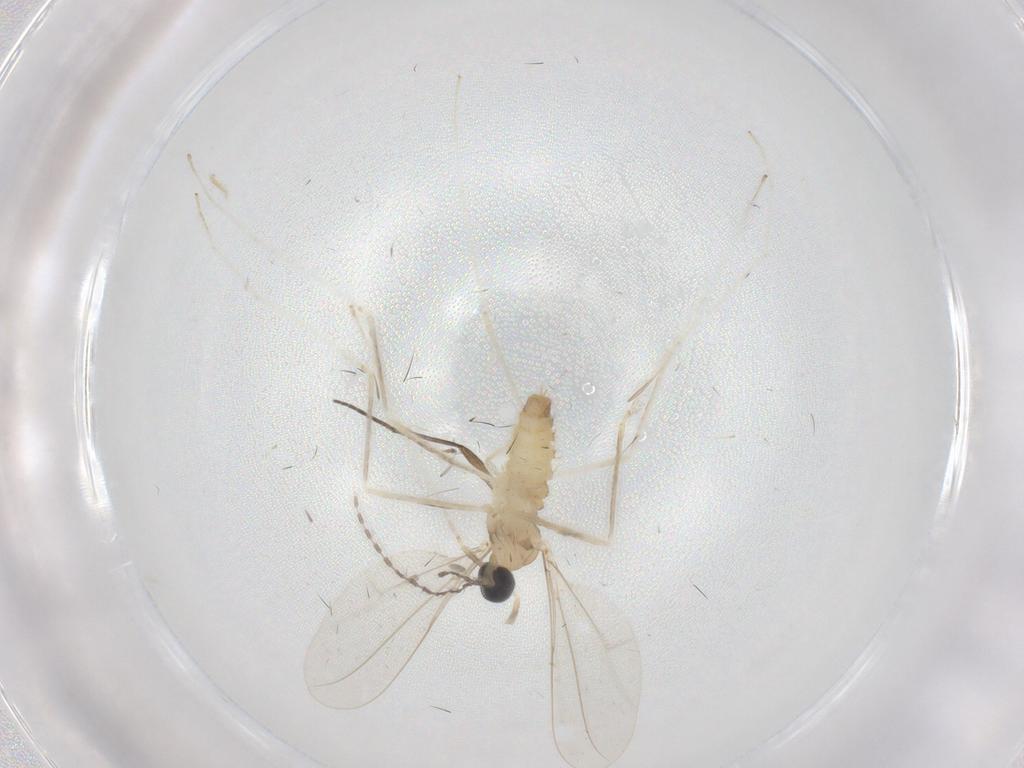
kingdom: Animalia
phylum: Arthropoda
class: Insecta
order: Diptera
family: Cecidomyiidae
